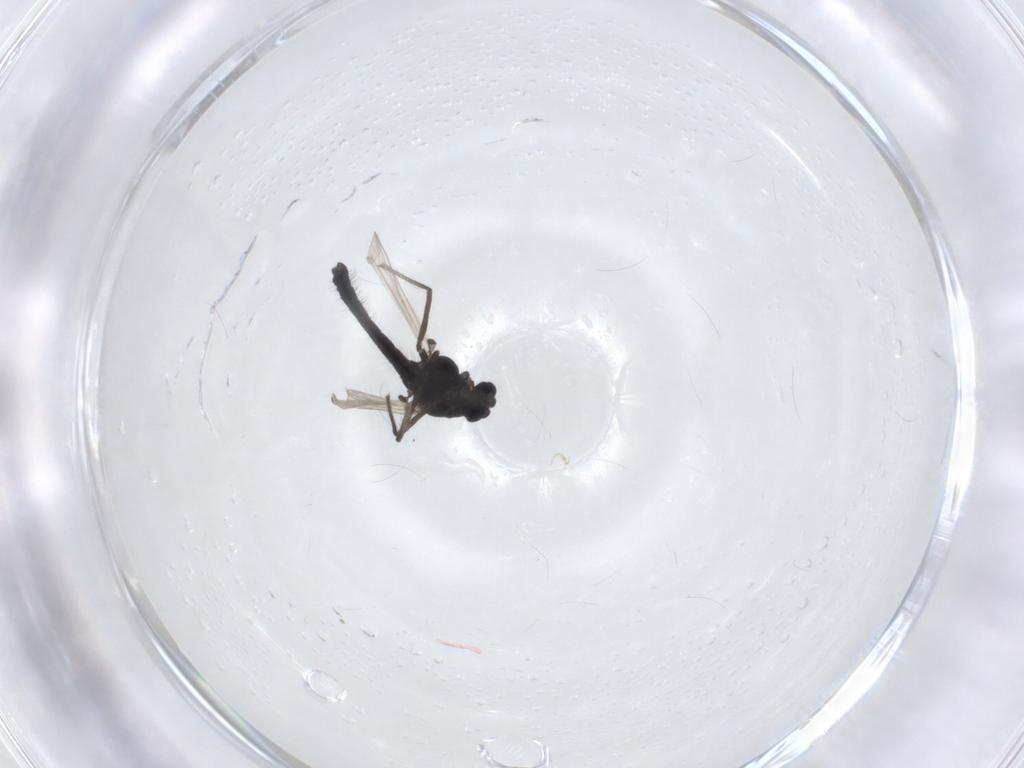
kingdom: Animalia
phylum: Arthropoda
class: Insecta
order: Diptera
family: Chironomidae
